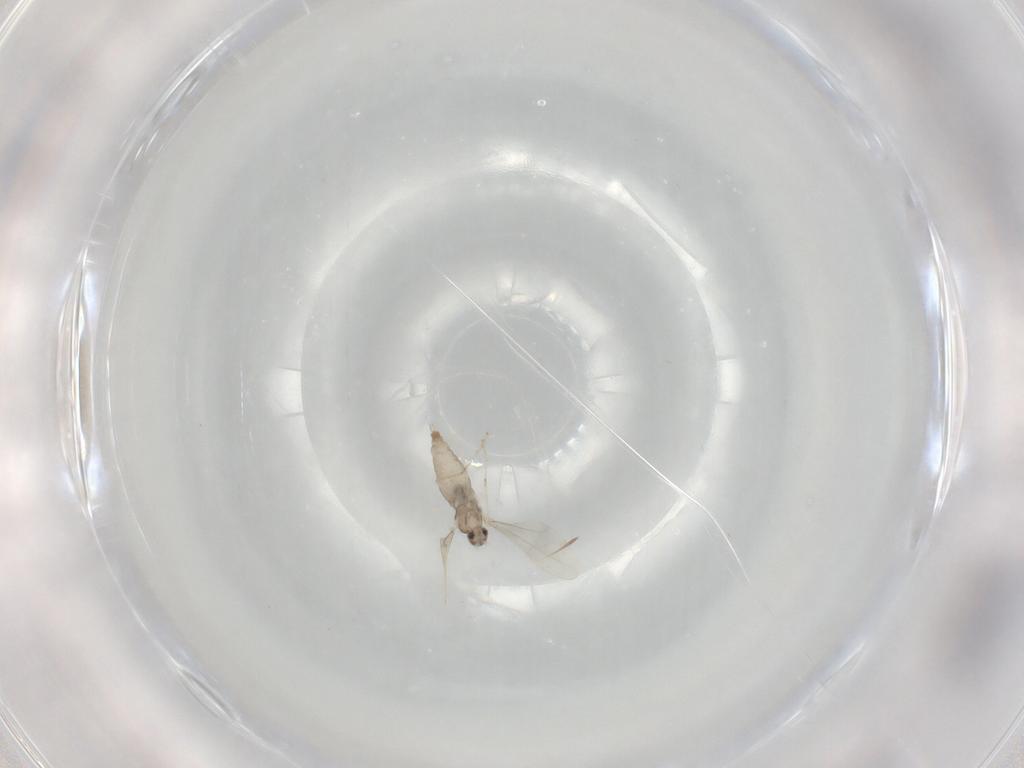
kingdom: Animalia
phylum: Arthropoda
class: Insecta
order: Diptera
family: Cecidomyiidae
